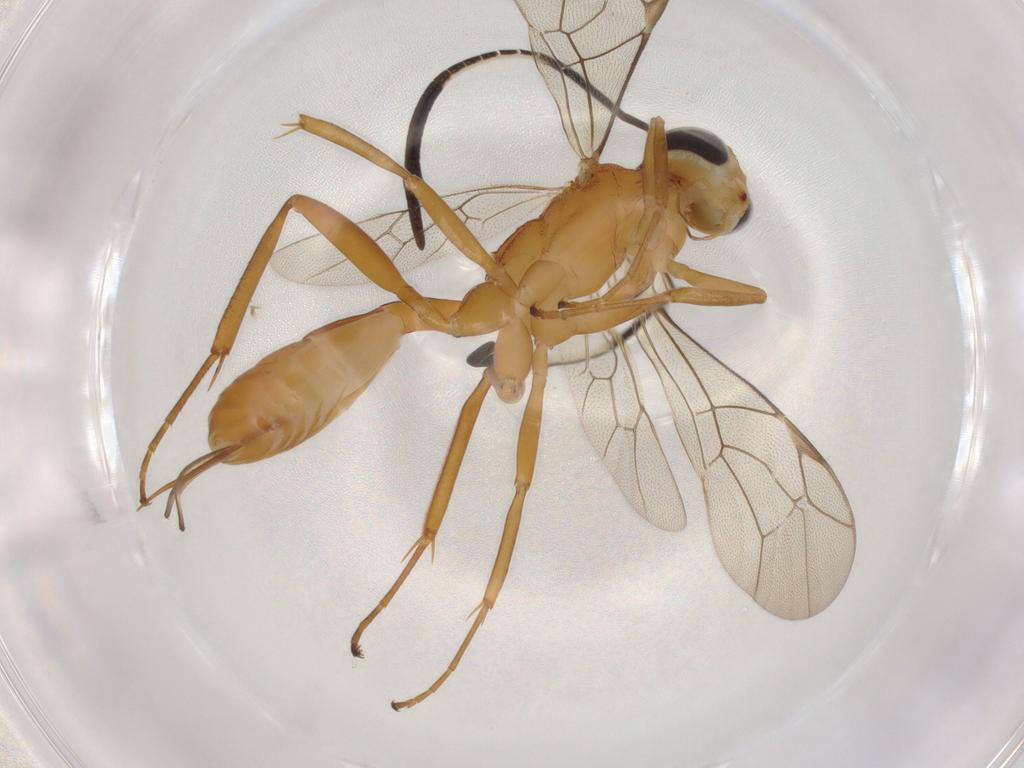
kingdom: Animalia
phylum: Arthropoda
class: Insecta
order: Hymenoptera
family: Ichneumonidae
